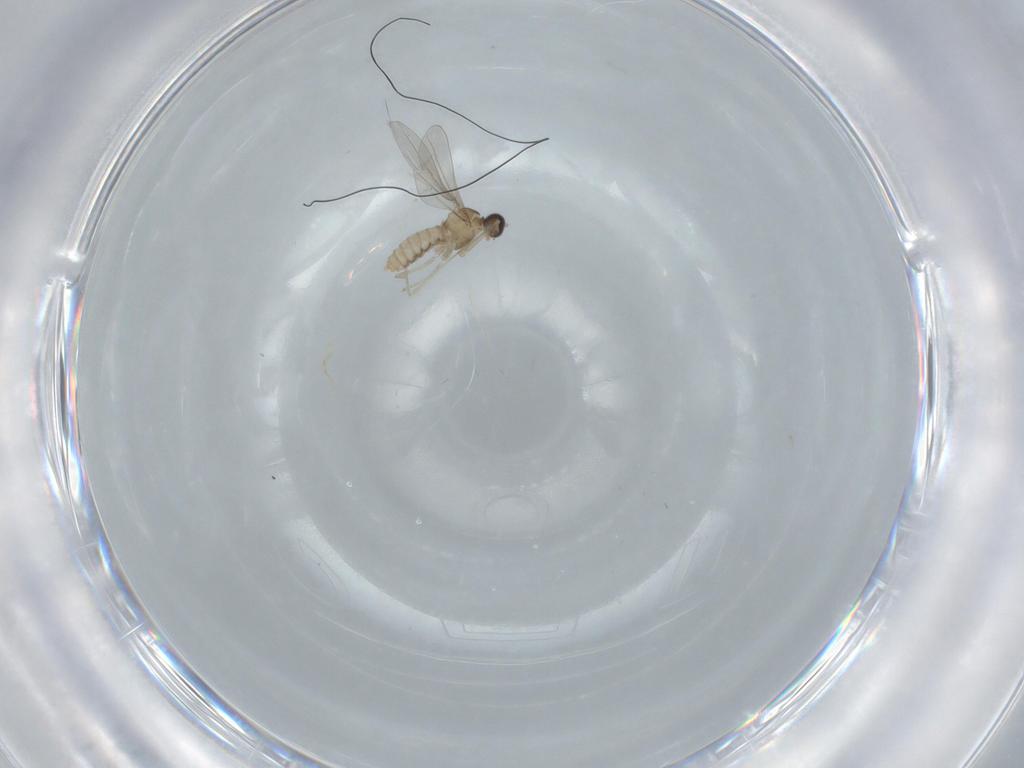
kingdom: Animalia
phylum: Arthropoda
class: Insecta
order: Diptera
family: Cecidomyiidae
